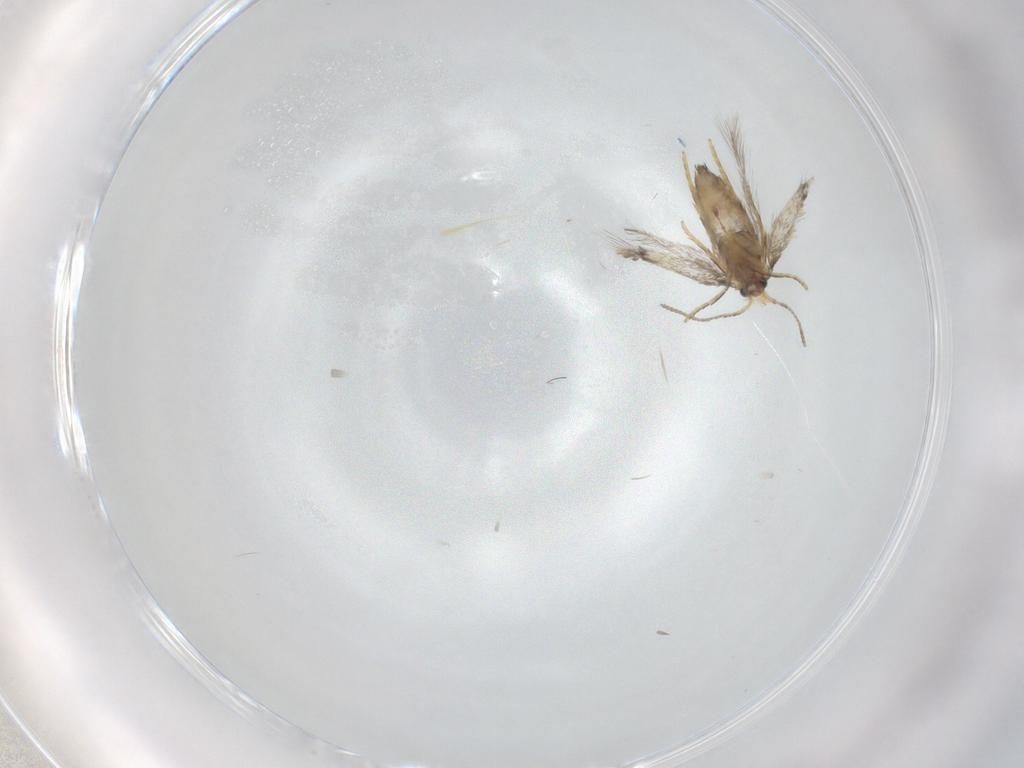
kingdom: Animalia
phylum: Arthropoda
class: Insecta
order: Lepidoptera
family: Nepticulidae
